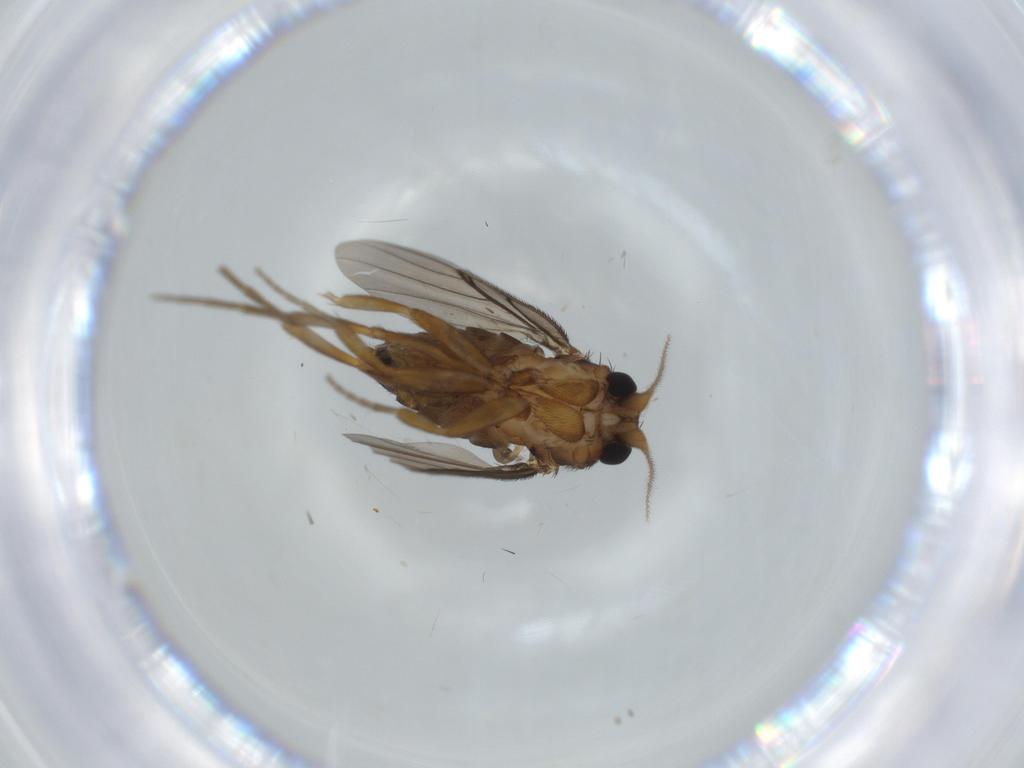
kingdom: Animalia
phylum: Arthropoda
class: Insecta
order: Diptera
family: Phoridae
